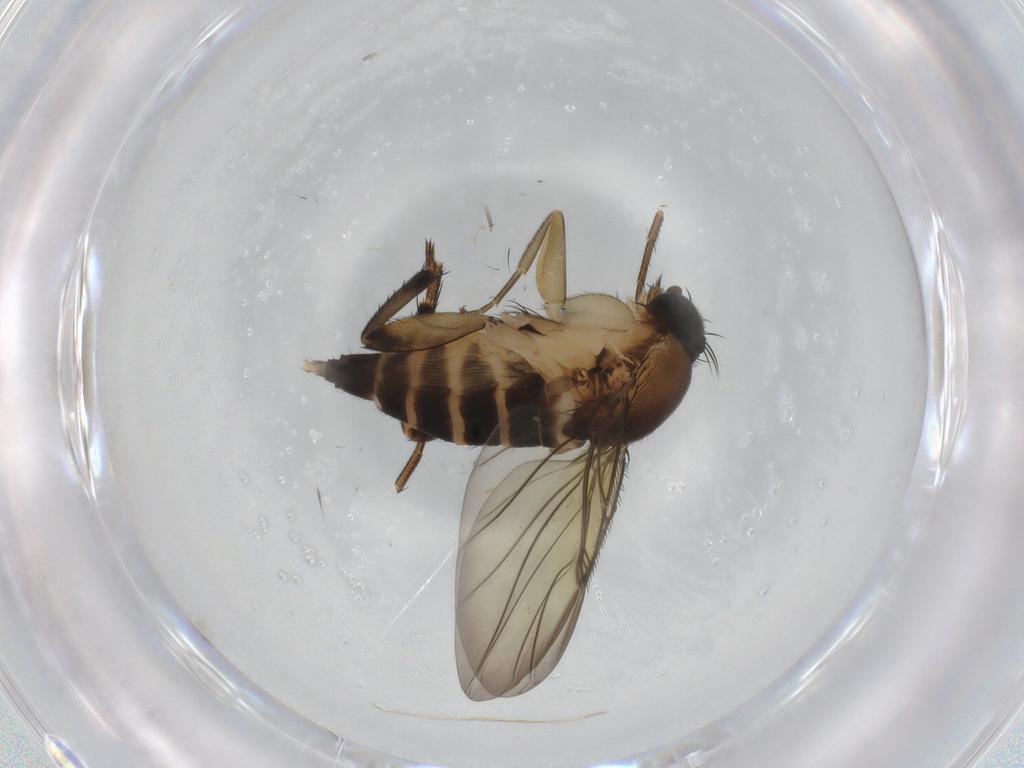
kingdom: Animalia
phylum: Arthropoda
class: Insecta
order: Diptera
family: Phoridae
